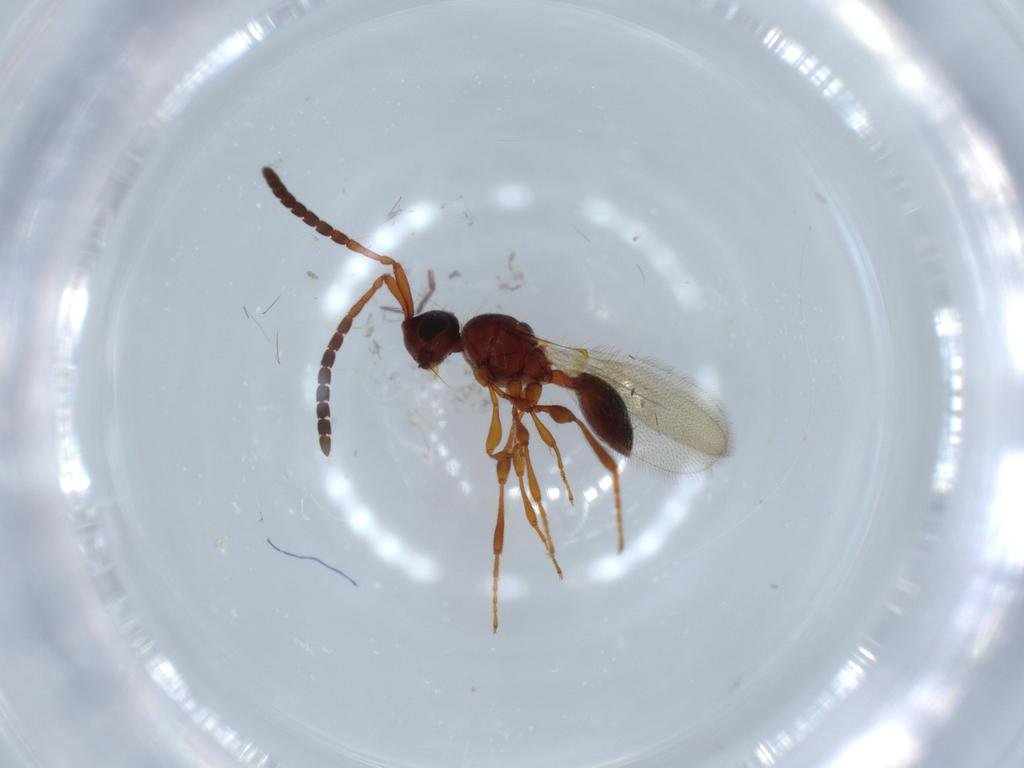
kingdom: Animalia
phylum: Arthropoda
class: Insecta
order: Hymenoptera
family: Diapriidae
